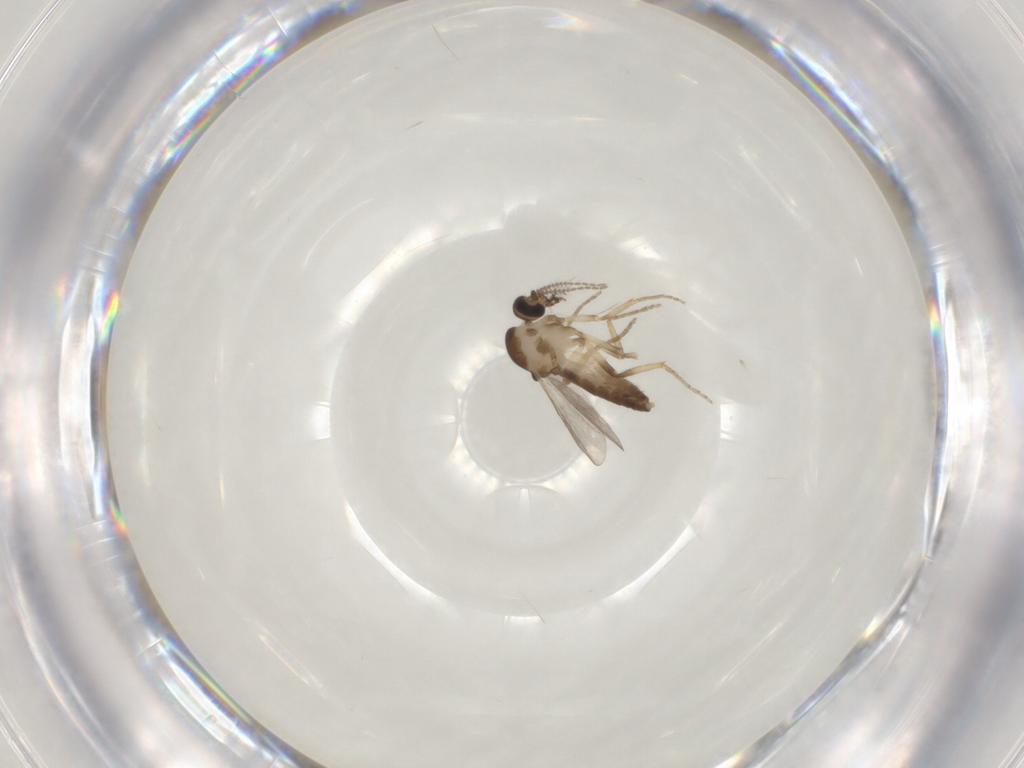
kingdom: Animalia
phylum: Arthropoda
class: Insecta
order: Diptera
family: Ceratopogonidae
